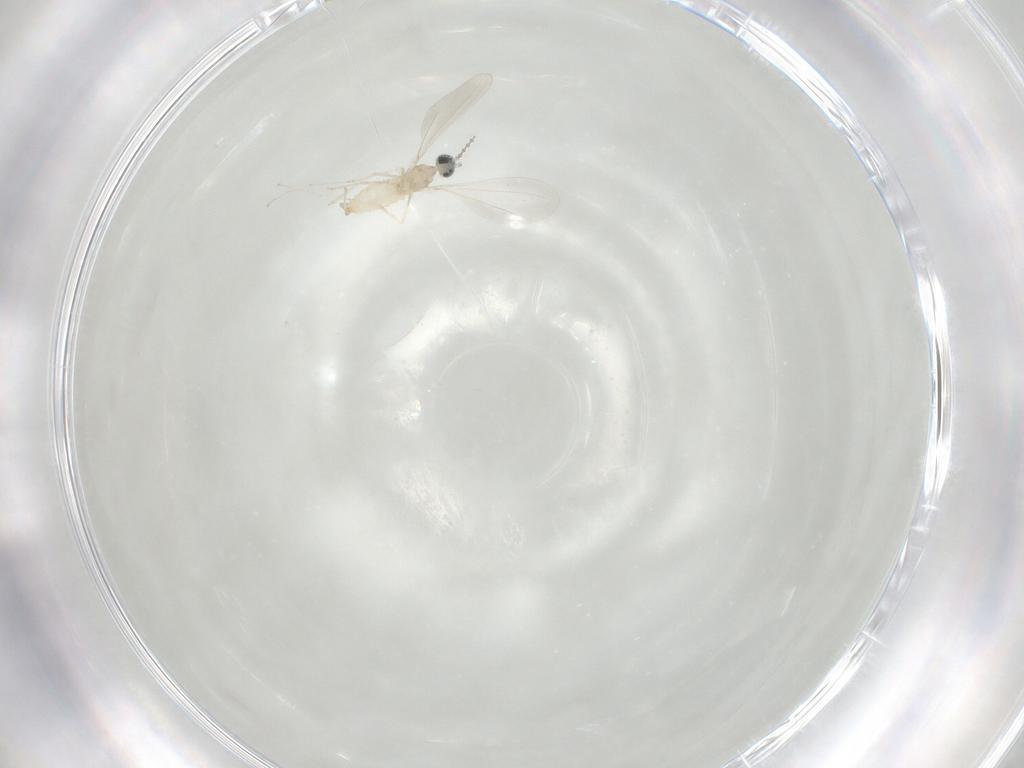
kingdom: Animalia
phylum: Arthropoda
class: Insecta
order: Diptera
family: Cecidomyiidae
